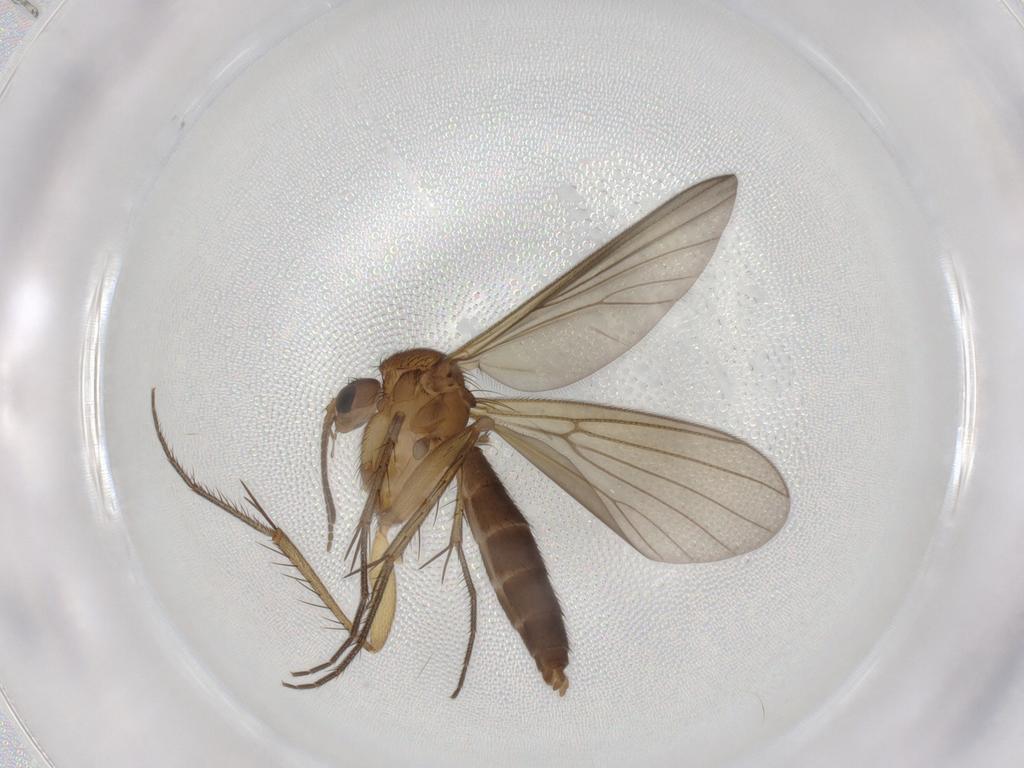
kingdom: Animalia
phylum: Arthropoda
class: Insecta
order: Diptera
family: Mycetophilidae
